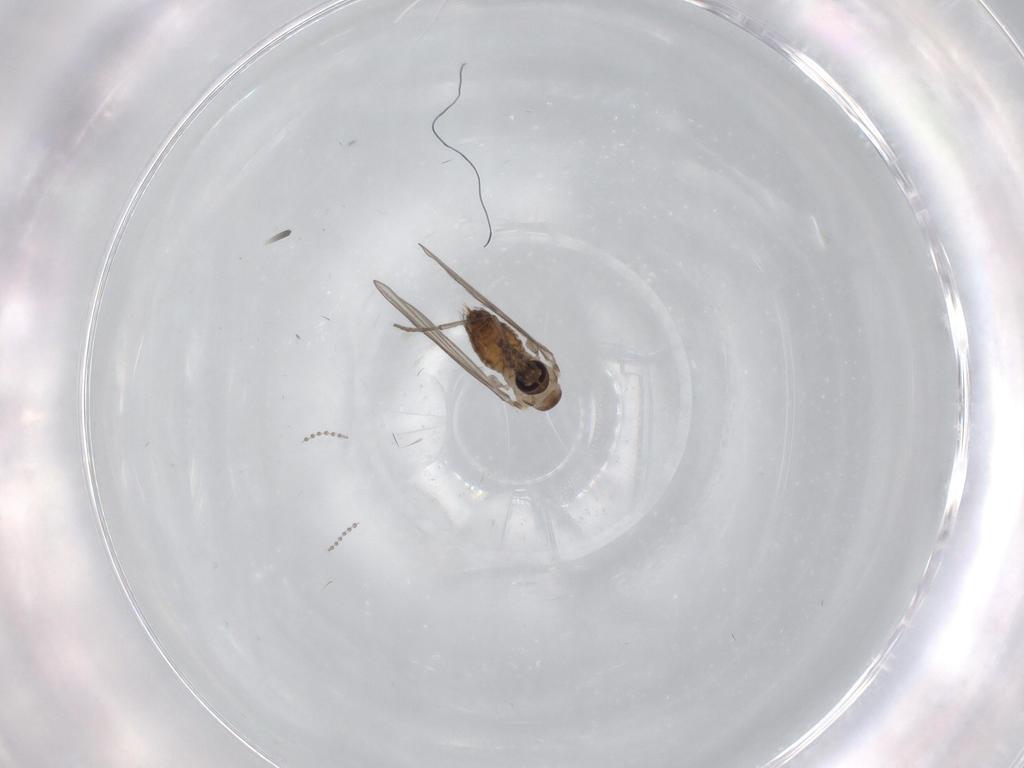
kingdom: Animalia
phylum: Arthropoda
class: Insecta
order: Diptera
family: Psychodidae
